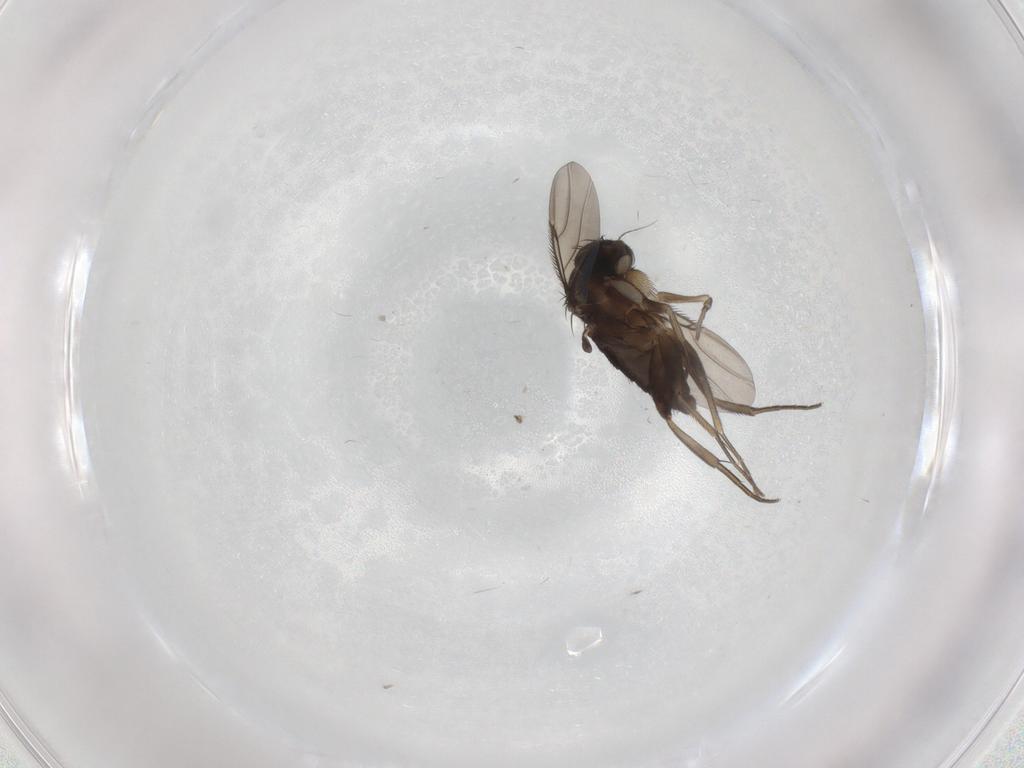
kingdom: Animalia
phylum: Arthropoda
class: Insecta
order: Diptera
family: Phoridae
